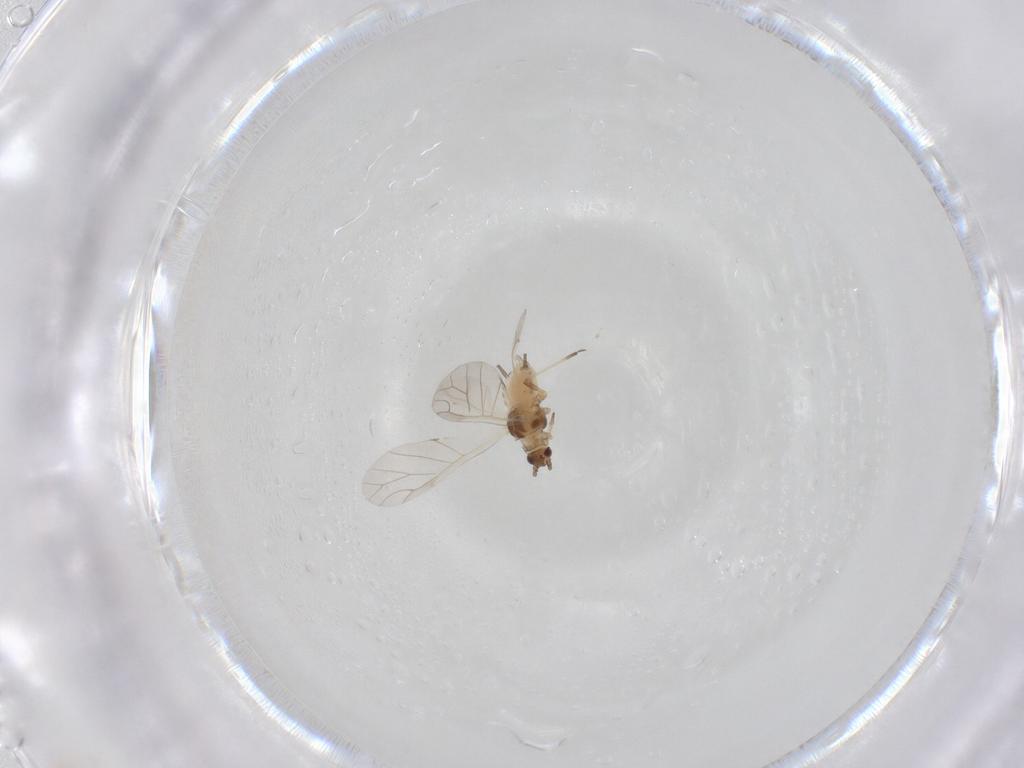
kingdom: Animalia
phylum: Arthropoda
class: Insecta
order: Hemiptera
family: Aphididae
